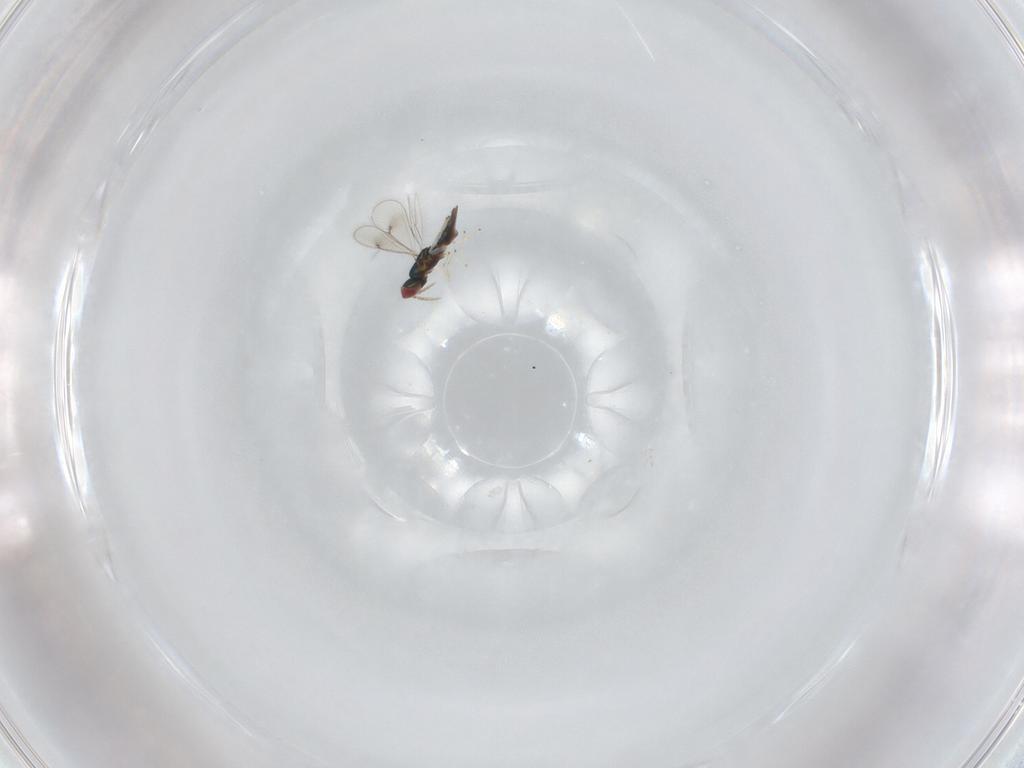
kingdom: Animalia
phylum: Arthropoda
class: Insecta
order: Hymenoptera
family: Eulophidae
